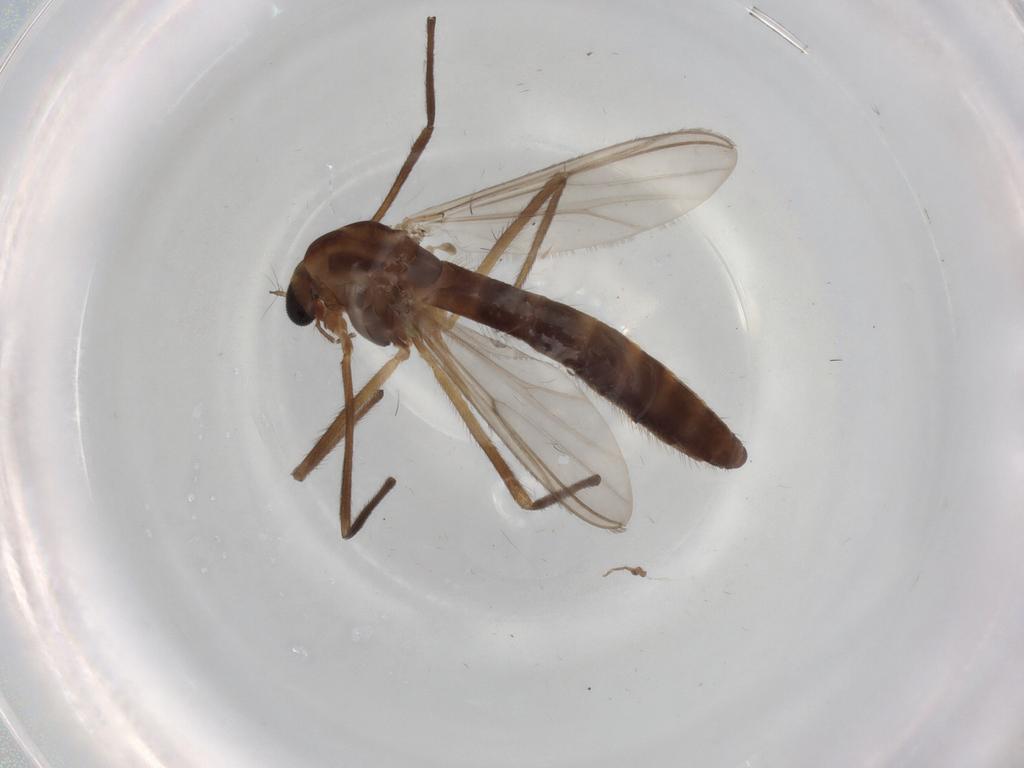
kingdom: Animalia
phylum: Arthropoda
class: Insecta
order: Diptera
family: Chironomidae
